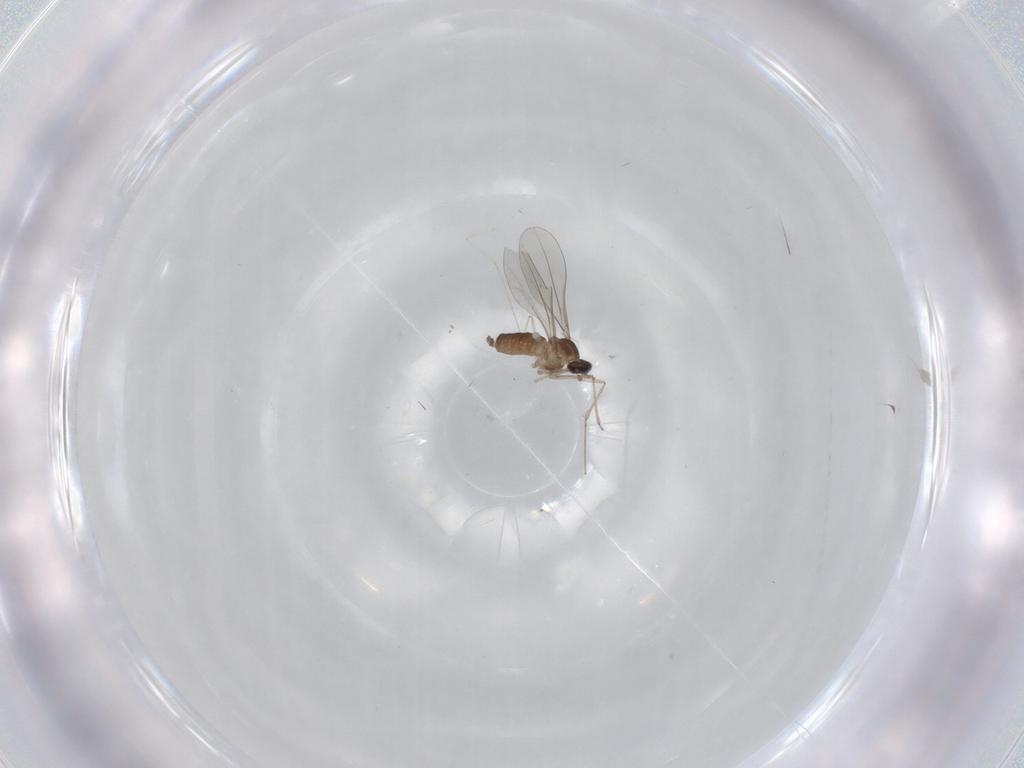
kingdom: Animalia
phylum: Arthropoda
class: Insecta
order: Diptera
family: Cecidomyiidae
